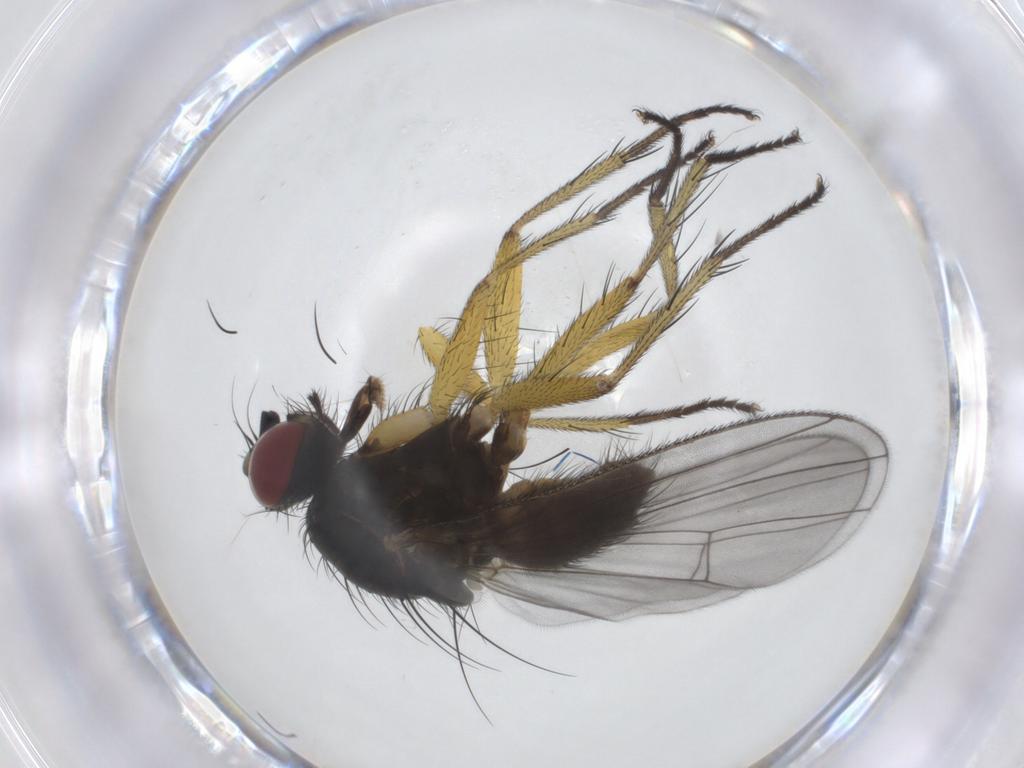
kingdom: Animalia
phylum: Arthropoda
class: Insecta
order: Diptera
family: Muscidae
